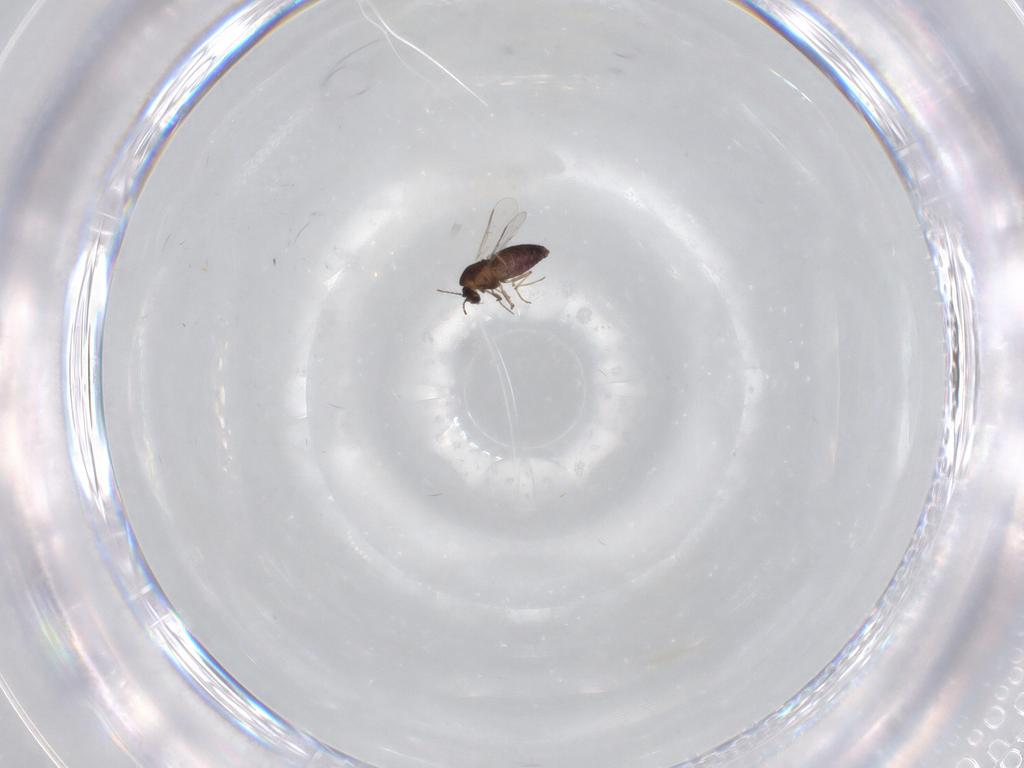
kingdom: Animalia
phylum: Arthropoda
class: Insecta
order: Diptera
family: Chironomidae
